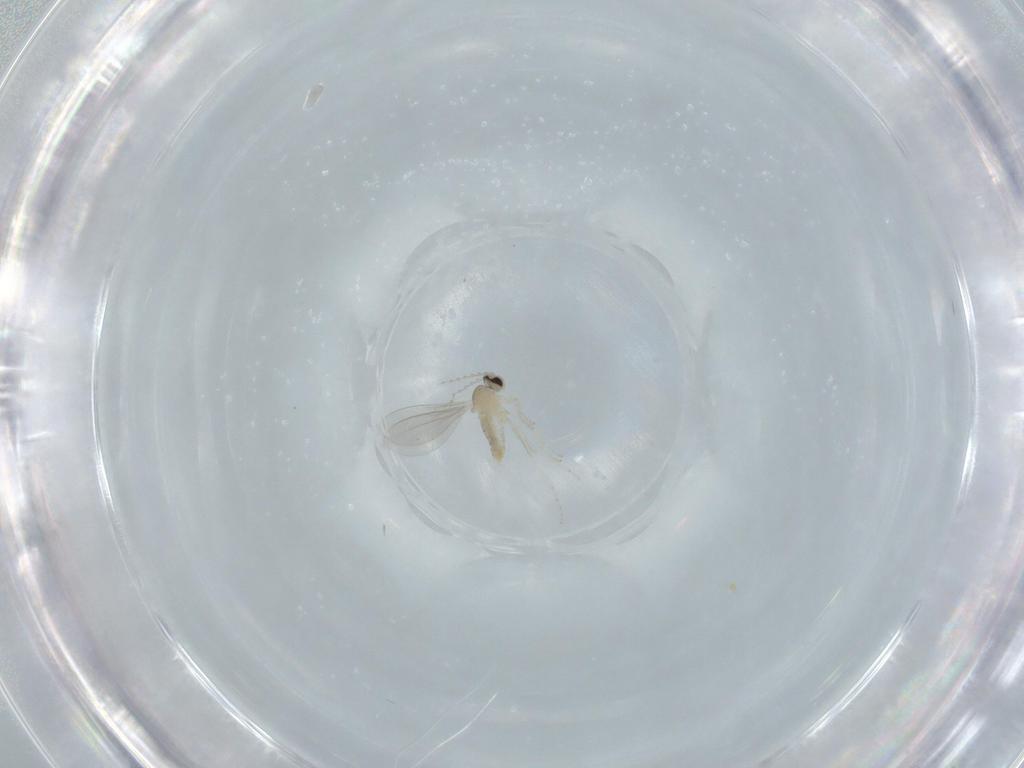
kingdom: Animalia
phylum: Arthropoda
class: Insecta
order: Diptera
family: Cecidomyiidae
